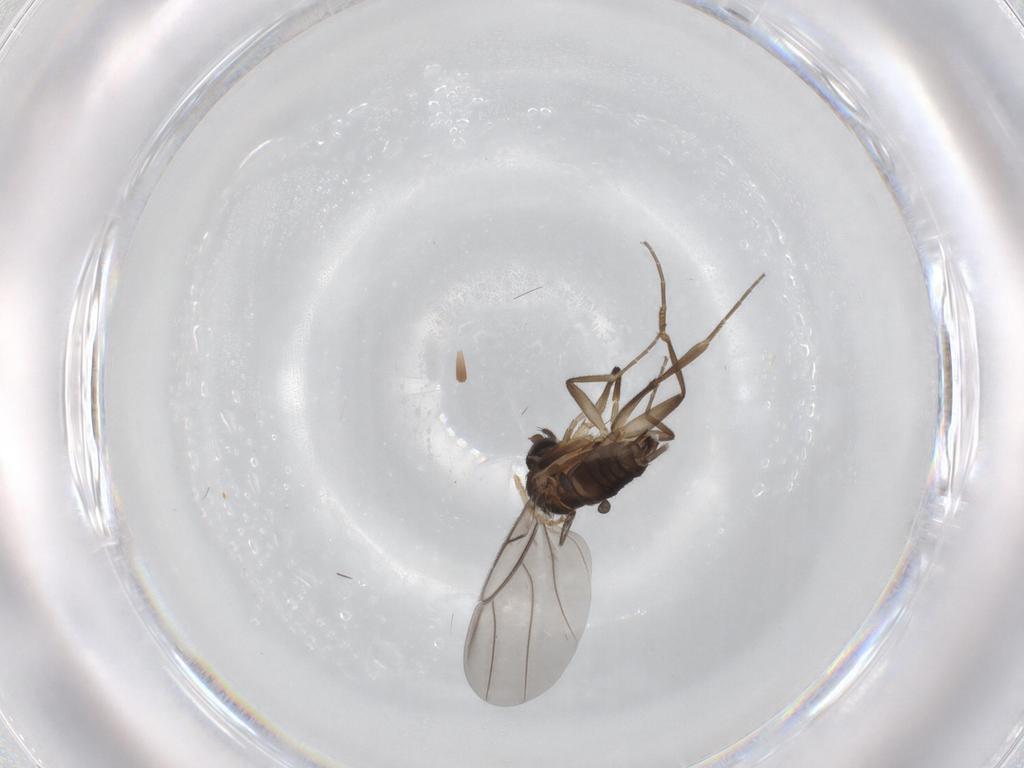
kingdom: Animalia
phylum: Arthropoda
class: Insecta
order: Diptera
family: Phoridae
